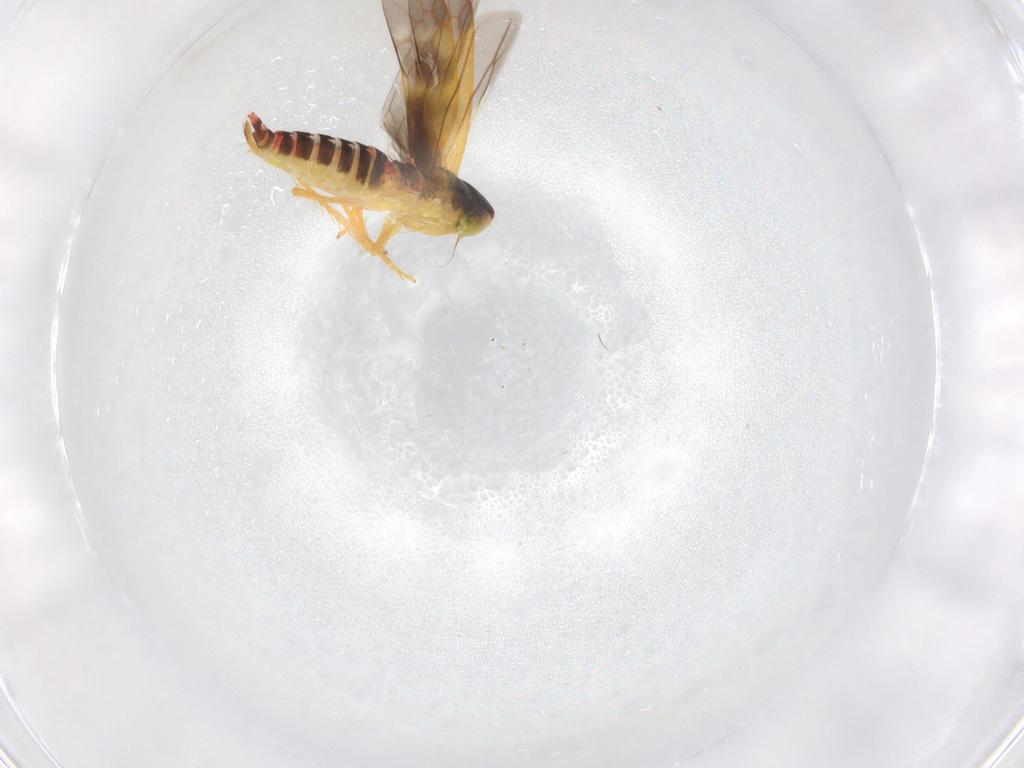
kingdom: Animalia
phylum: Arthropoda
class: Insecta
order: Hemiptera
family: Cicadellidae
